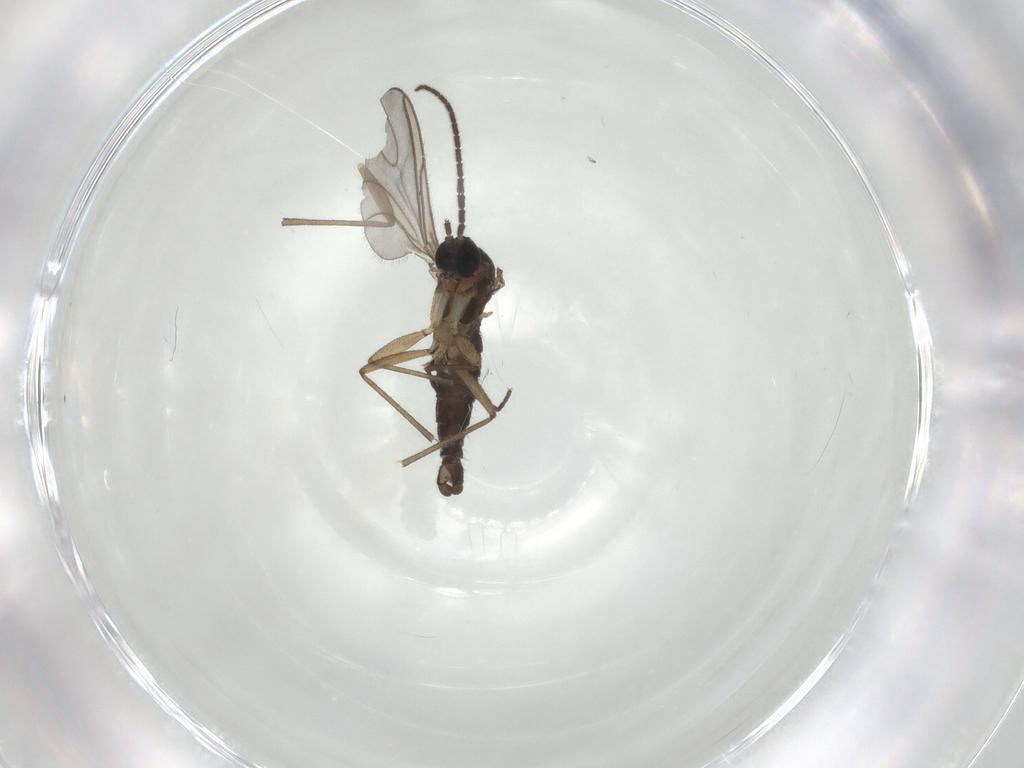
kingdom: Animalia
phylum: Arthropoda
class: Insecta
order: Diptera
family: Sciaridae
